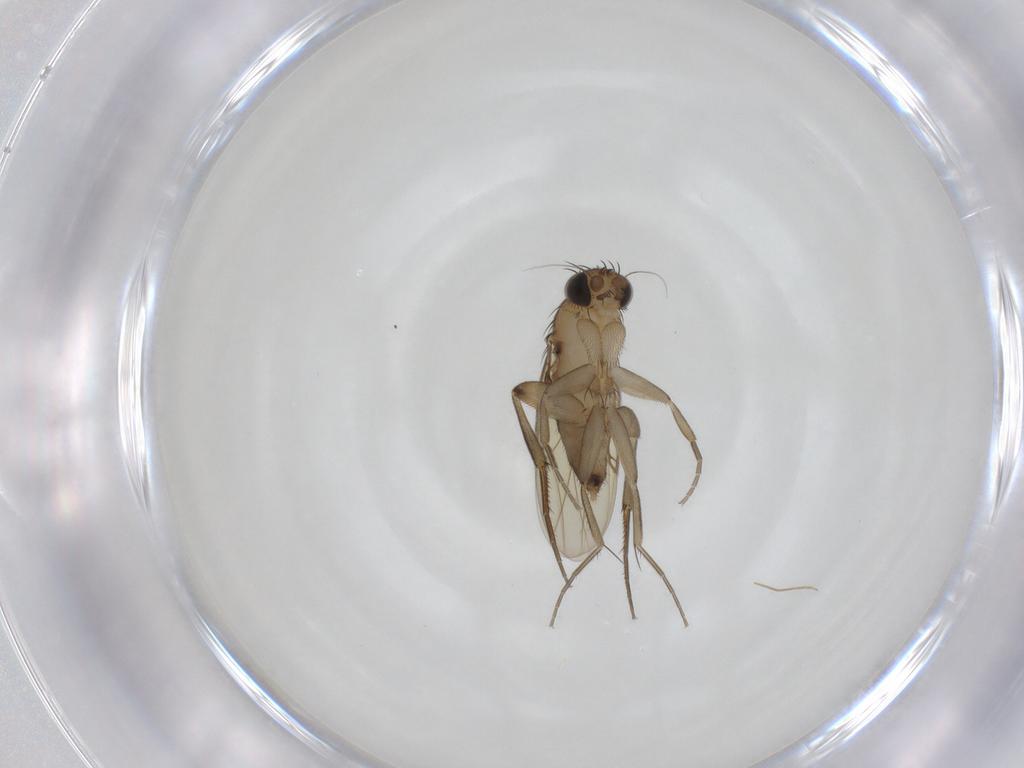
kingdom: Animalia
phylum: Arthropoda
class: Insecta
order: Diptera
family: Phoridae
